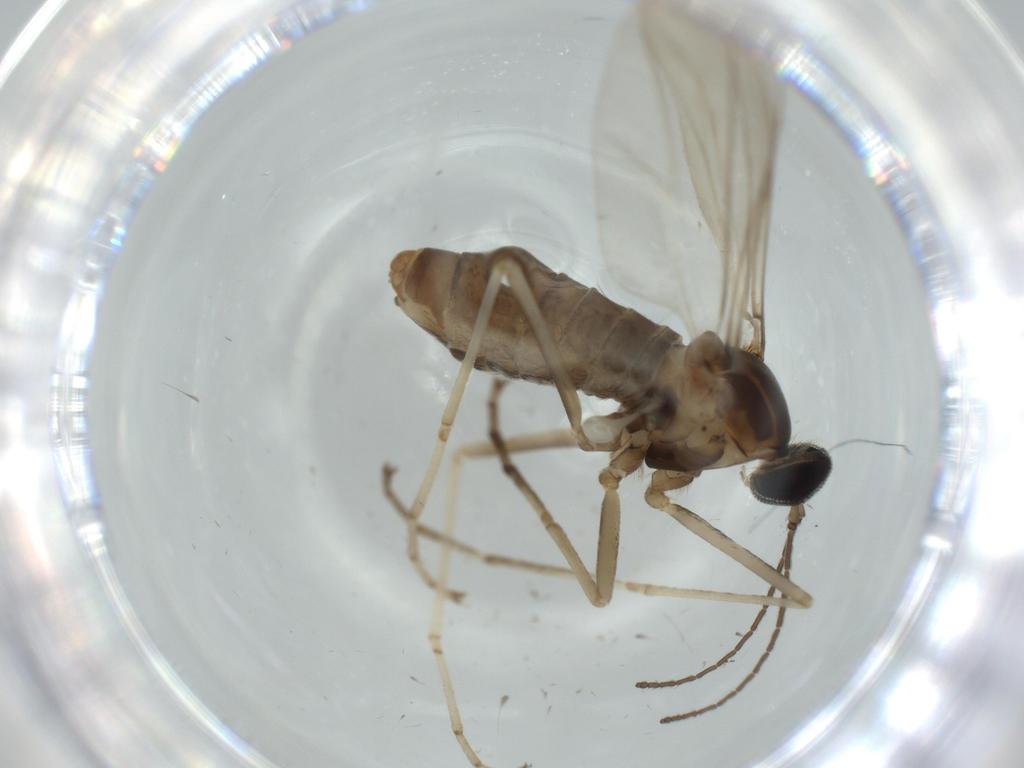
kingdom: Animalia
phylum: Arthropoda
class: Insecta
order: Diptera
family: Cecidomyiidae
